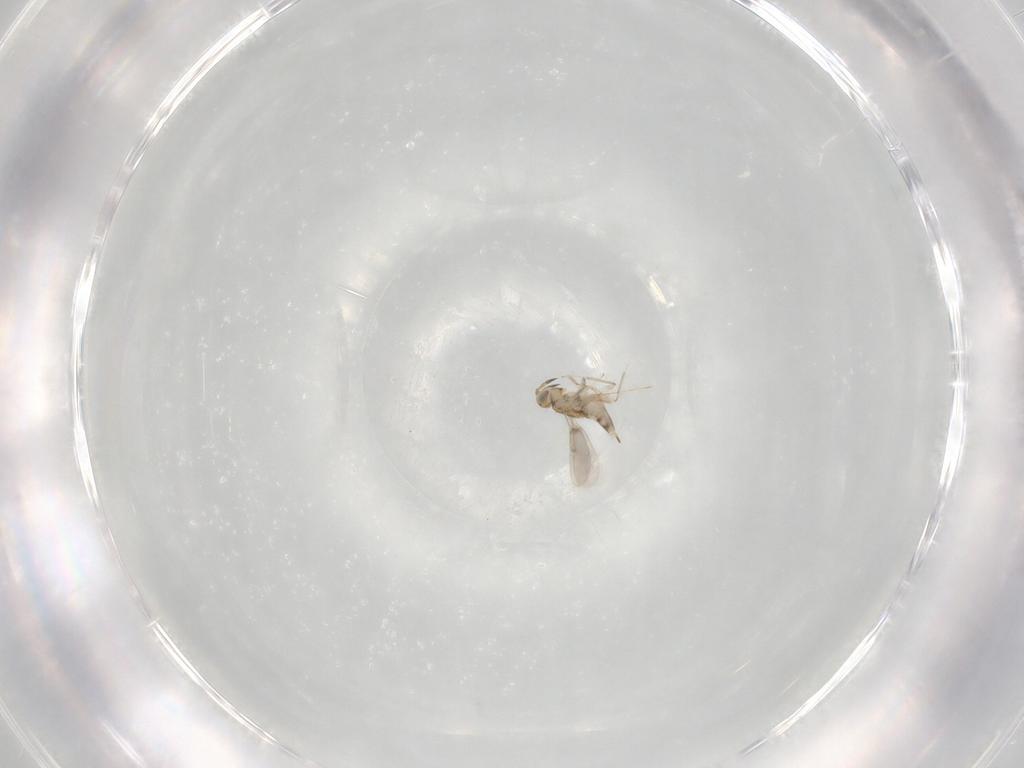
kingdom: Animalia
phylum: Arthropoda
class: Insecta
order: Hymenoptera
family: Aphelinidae
